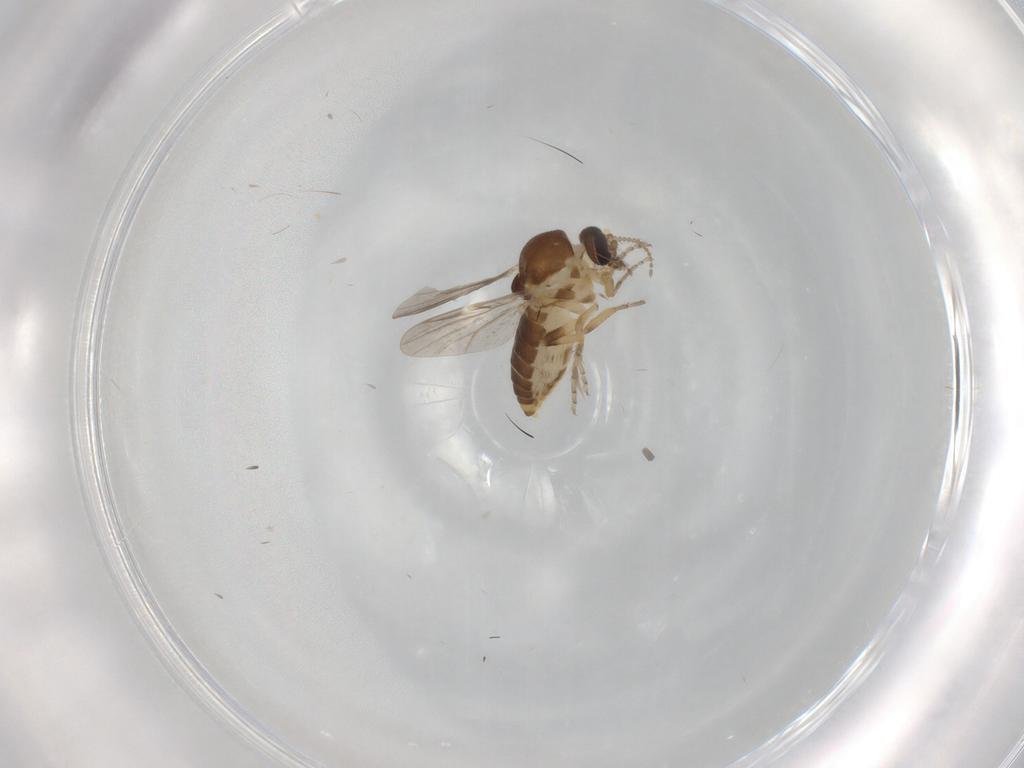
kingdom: Animalia
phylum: Arthropoda
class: Insecta
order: Diptera
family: Ceratopogonidae
